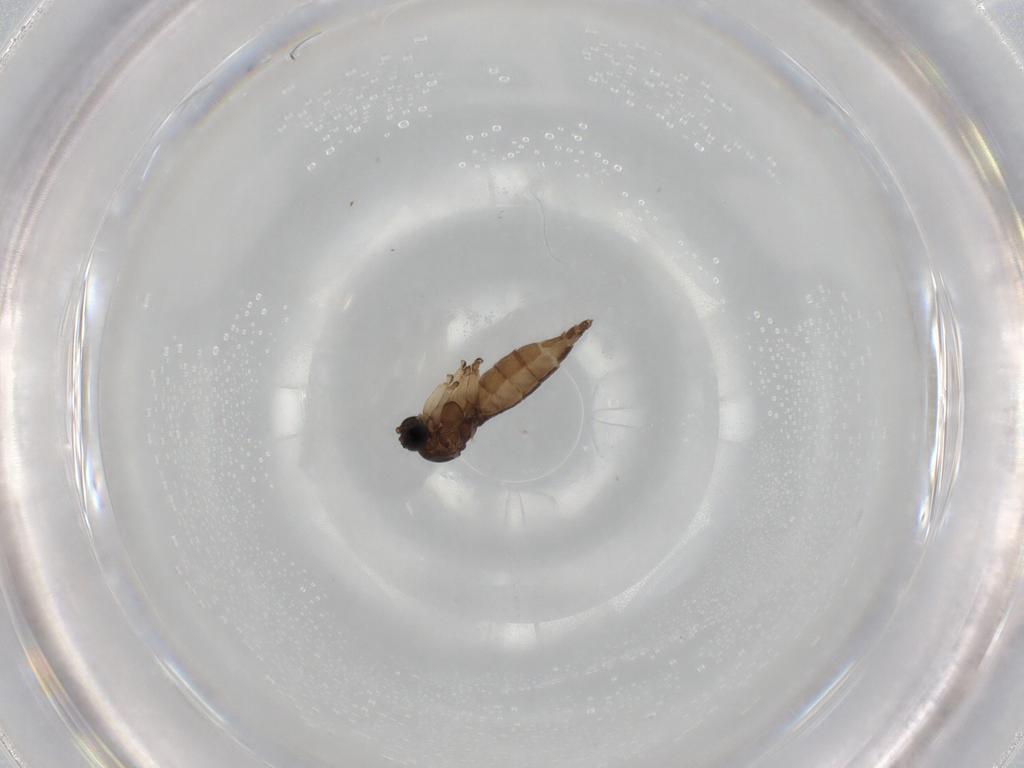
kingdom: Animalia
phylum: Arthropoda
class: Insecta
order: Diptera
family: Sciaridae
